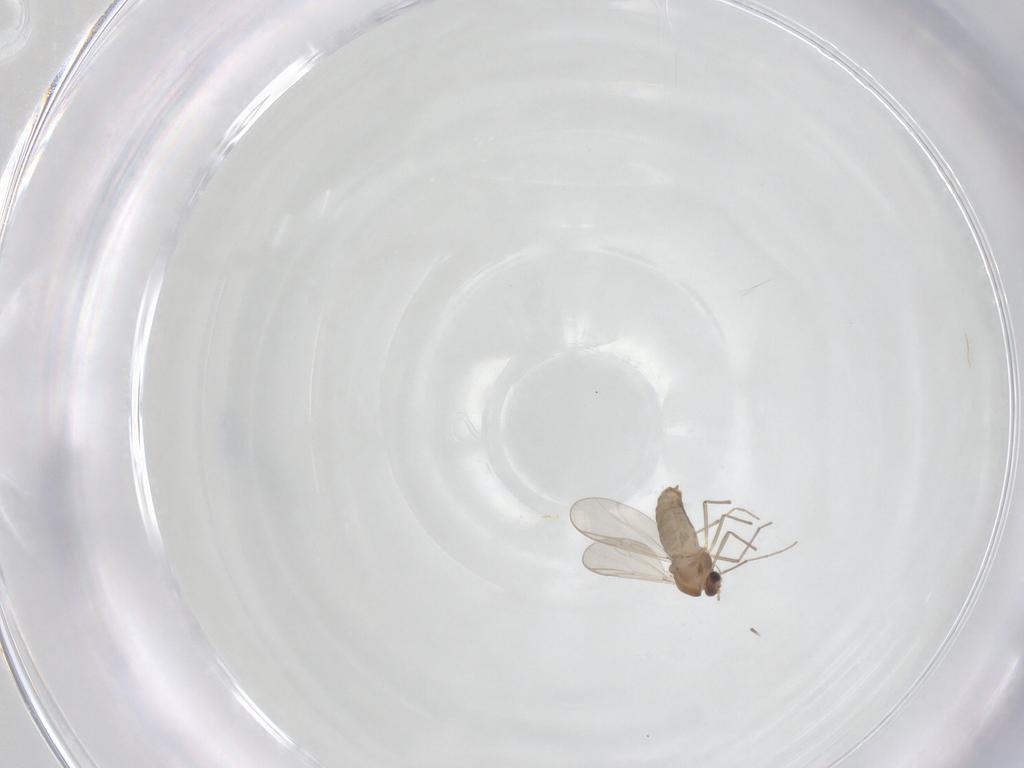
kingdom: Animalia
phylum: Arthropoda
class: Insecta
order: Diptera
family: Chironomidae
